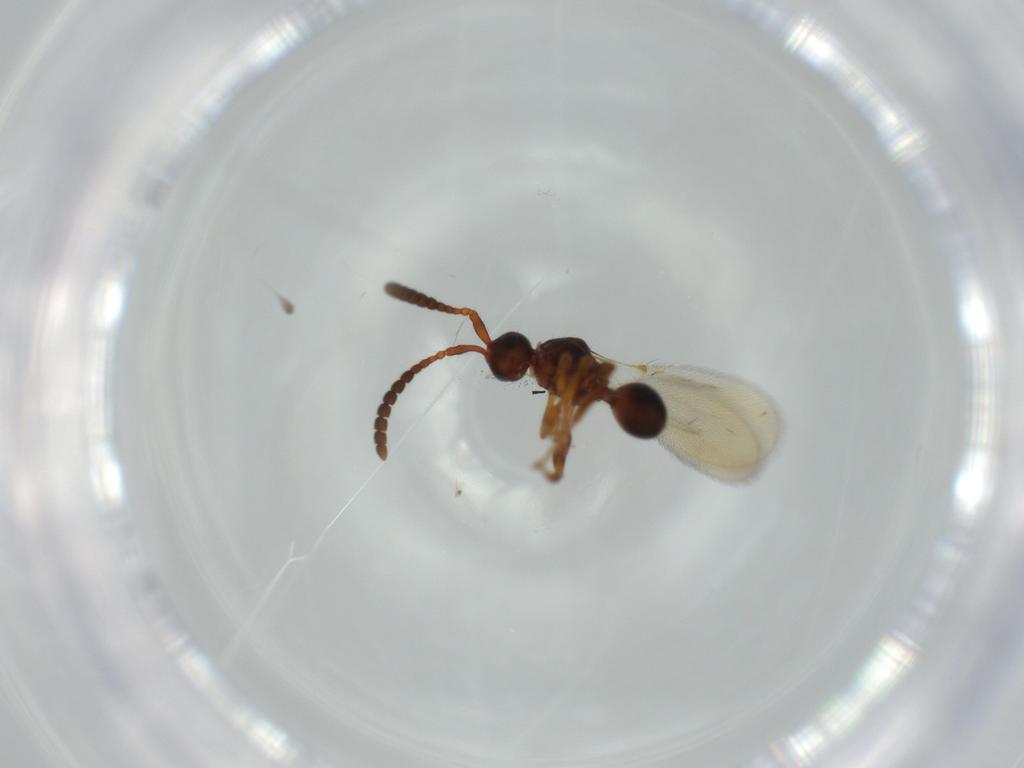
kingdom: Animalia
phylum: Arthropoda
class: Insecta
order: Hymenoptera
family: Diapriidae
